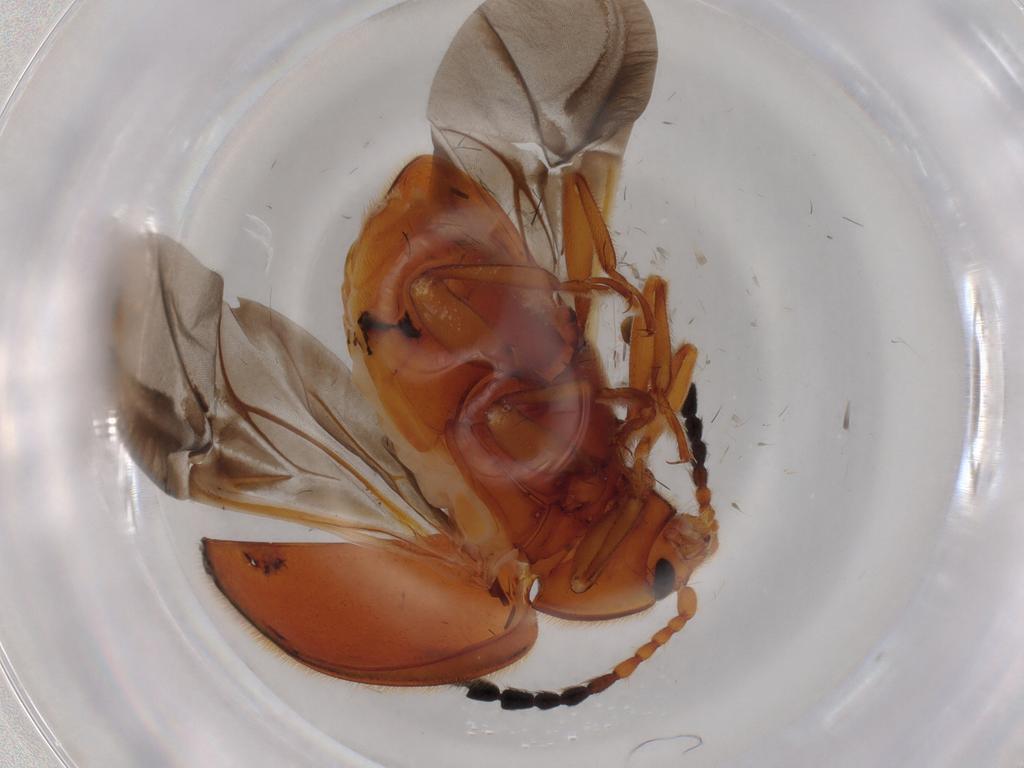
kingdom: Animalia
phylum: Arthropoda
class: Insecta
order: Coleoptera
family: Endomychidae
